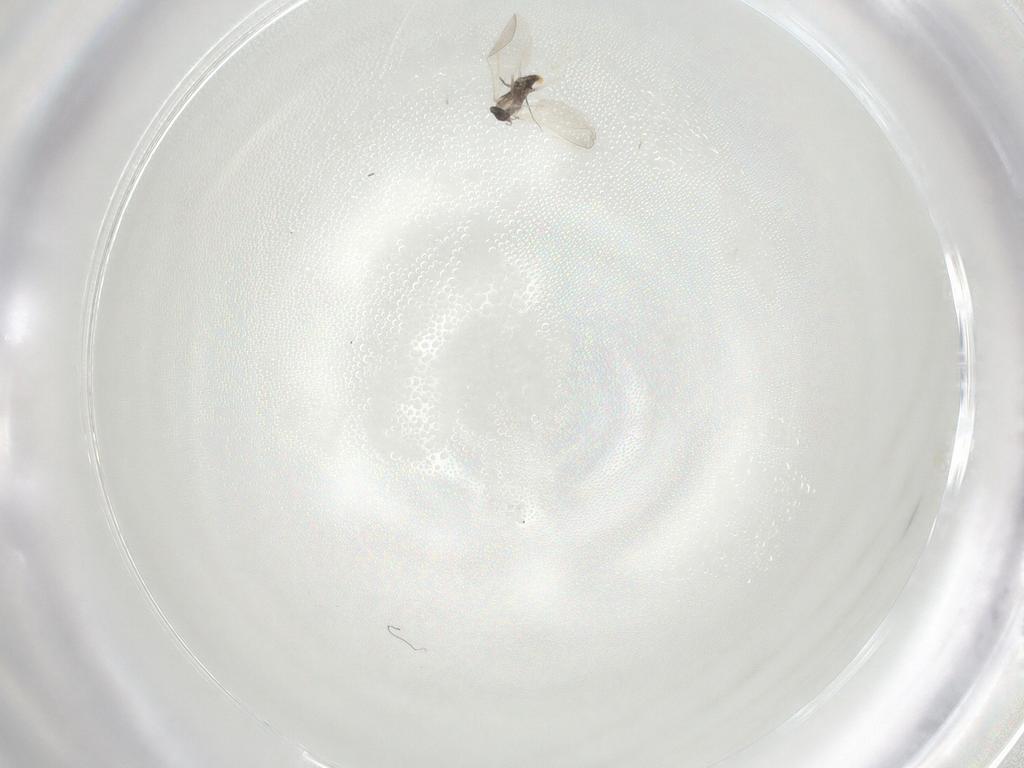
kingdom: Animalia
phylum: Arthropoda
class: Insecta
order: Diptera
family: Cecidomyiidae
